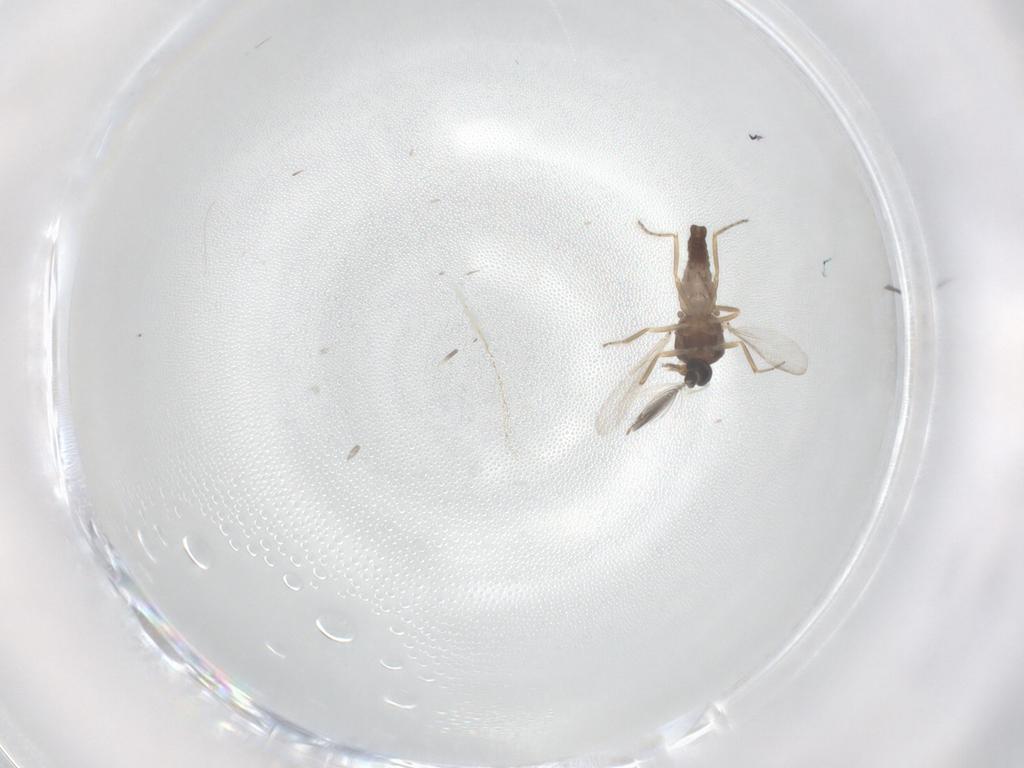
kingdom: Animalia
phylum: Arthropoda
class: Insecta
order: Diptera
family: Ceratopogonidae
